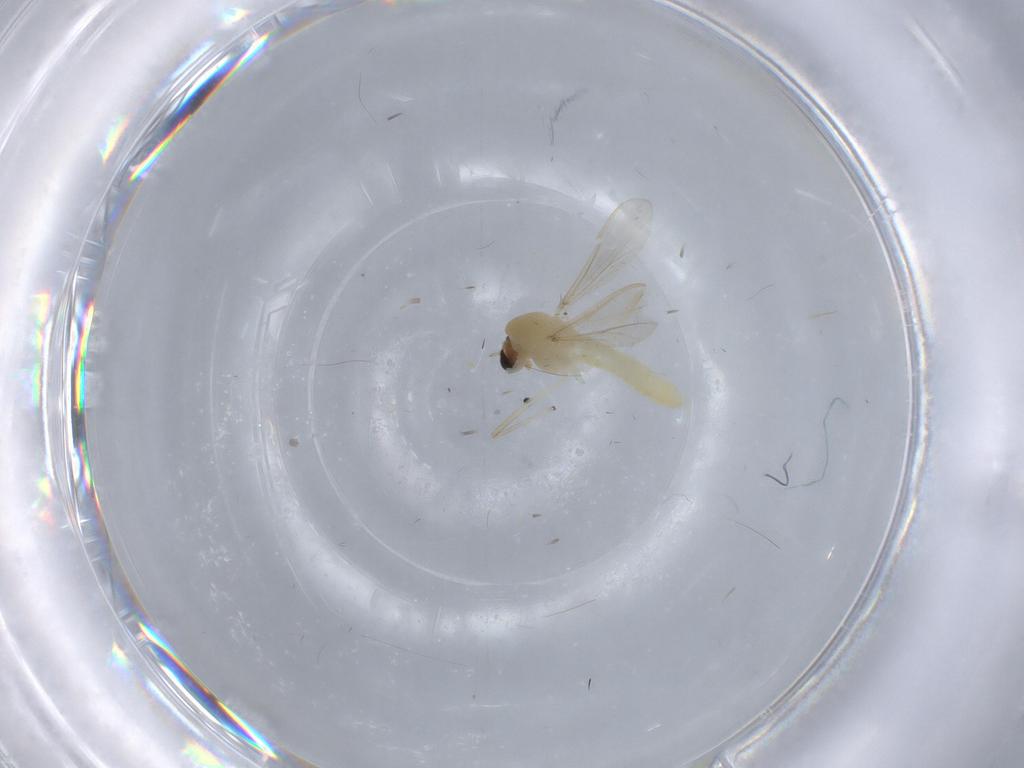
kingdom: Animalia
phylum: Arthropoda
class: Insecta
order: Diptera
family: Chironomidae
